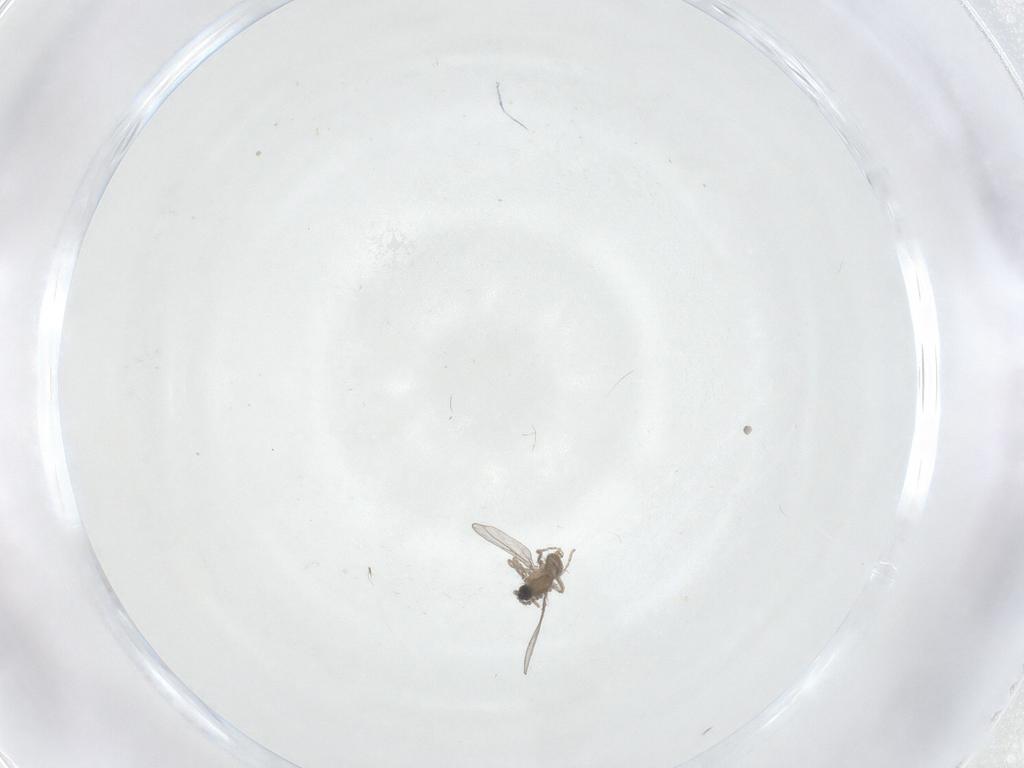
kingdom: Animalia
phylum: Arthropoda
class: Insecta
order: Diptera
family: Cecidomyiidae
